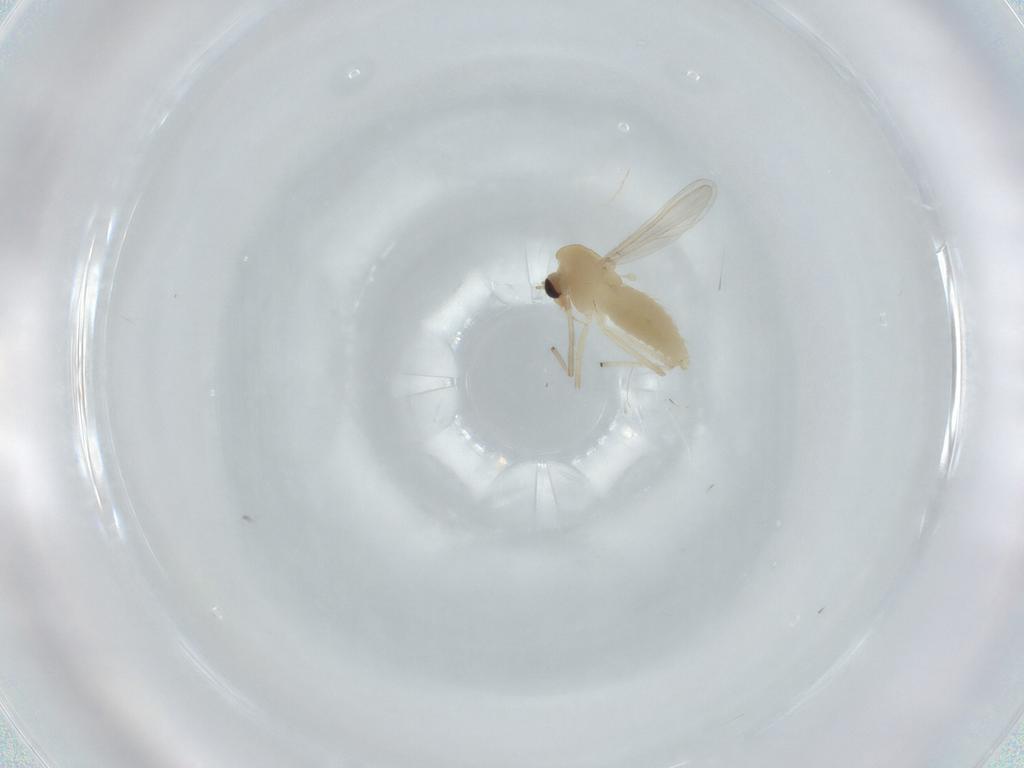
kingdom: Animalia
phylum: Arthropoda
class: Insecta
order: Diptera
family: Chironomidae
